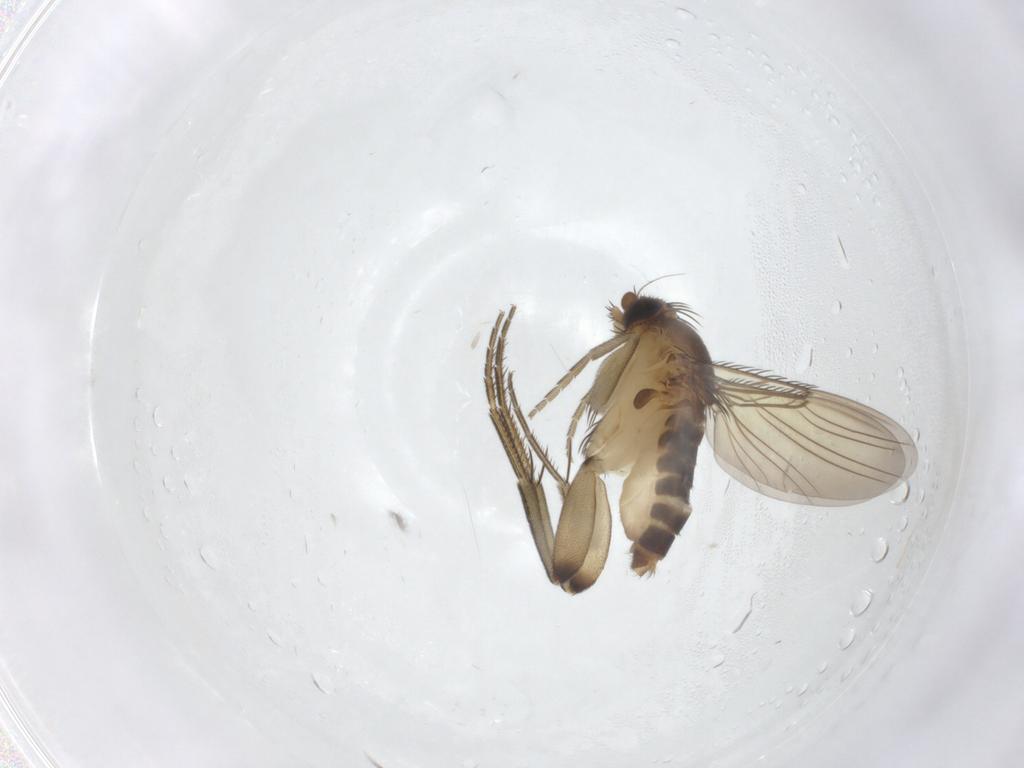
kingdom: Animalia
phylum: Arthropoda
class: Insecta
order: Diptera
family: Phoridae
